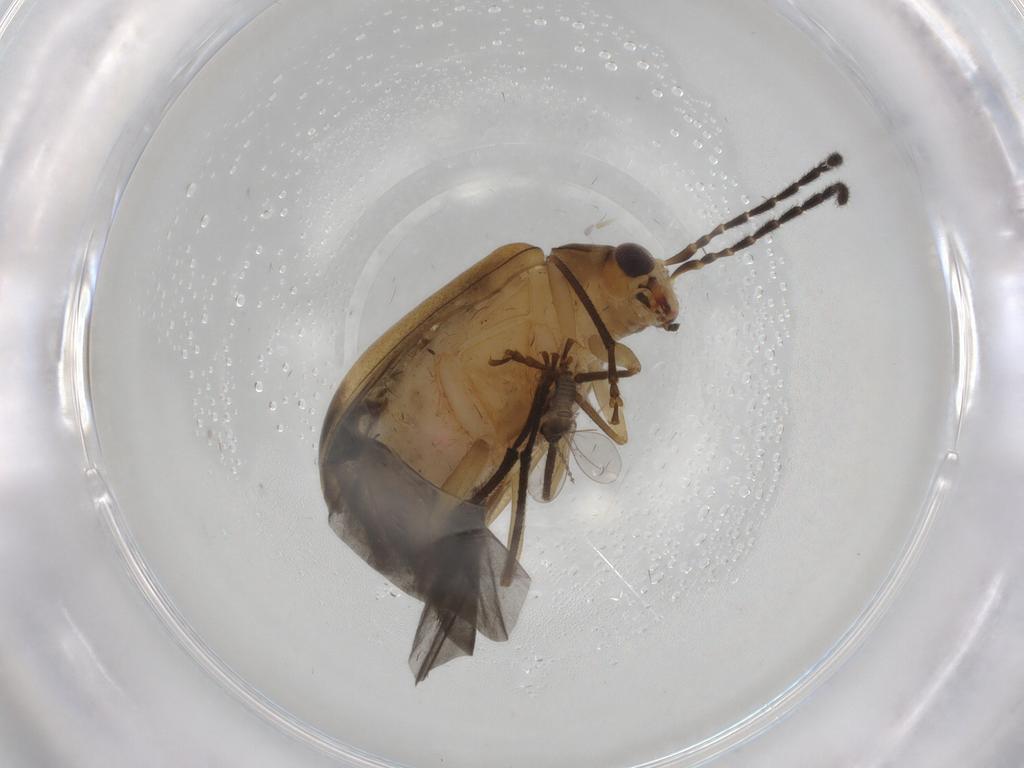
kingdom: Animalia
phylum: Arthropoda
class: Insecta
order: Coleoptera
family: Chrysomelidae
